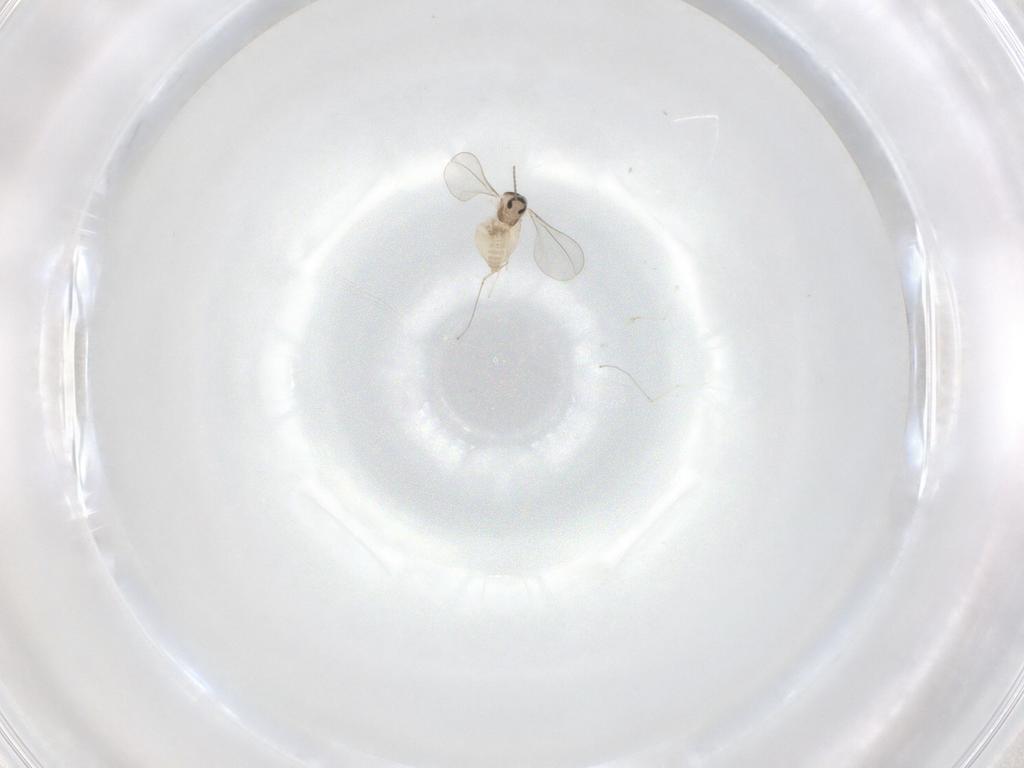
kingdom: Animalia
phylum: Arthropoda
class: Insecta
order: Diptera
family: Cecidomyiidae
